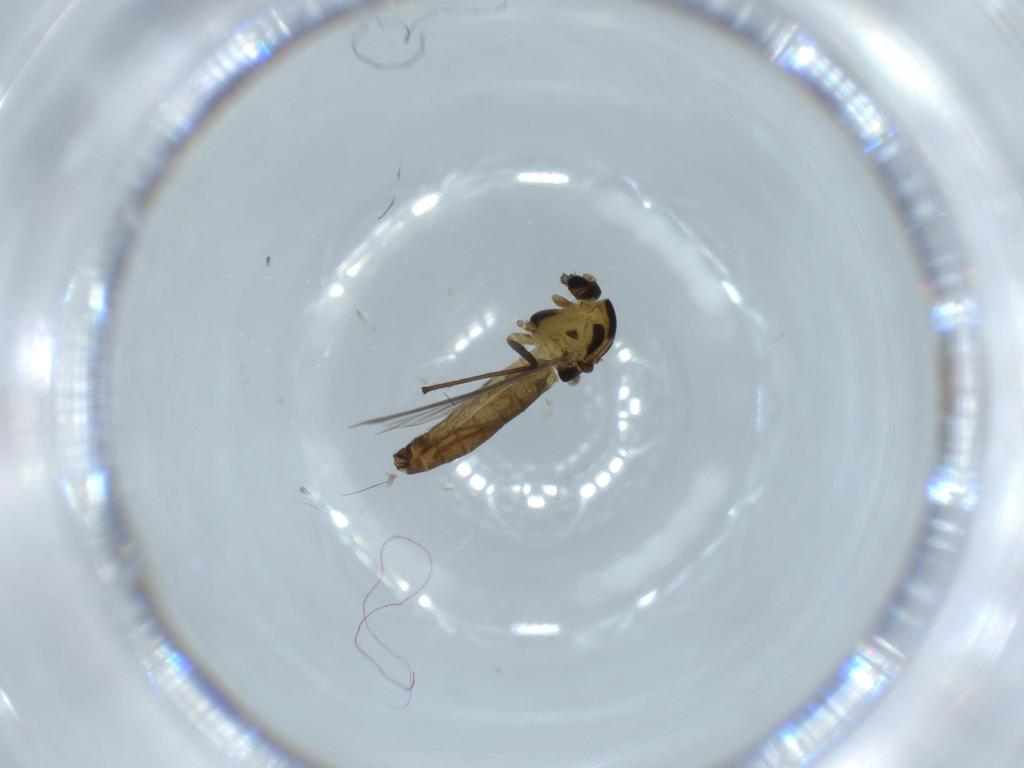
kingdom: Animalia
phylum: Arthropoda
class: Insecta
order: Diptera
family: Chironomidae
